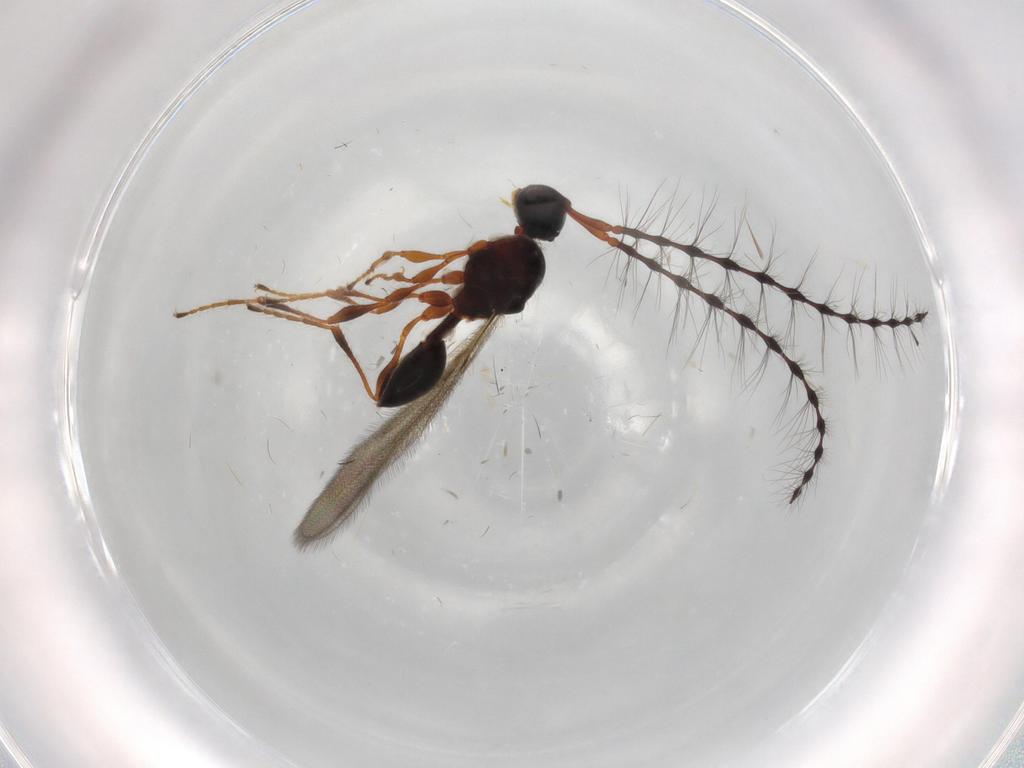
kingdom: Animalia
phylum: Arthropoda
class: Insecta
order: Hymenoptera
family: Diapriidae
